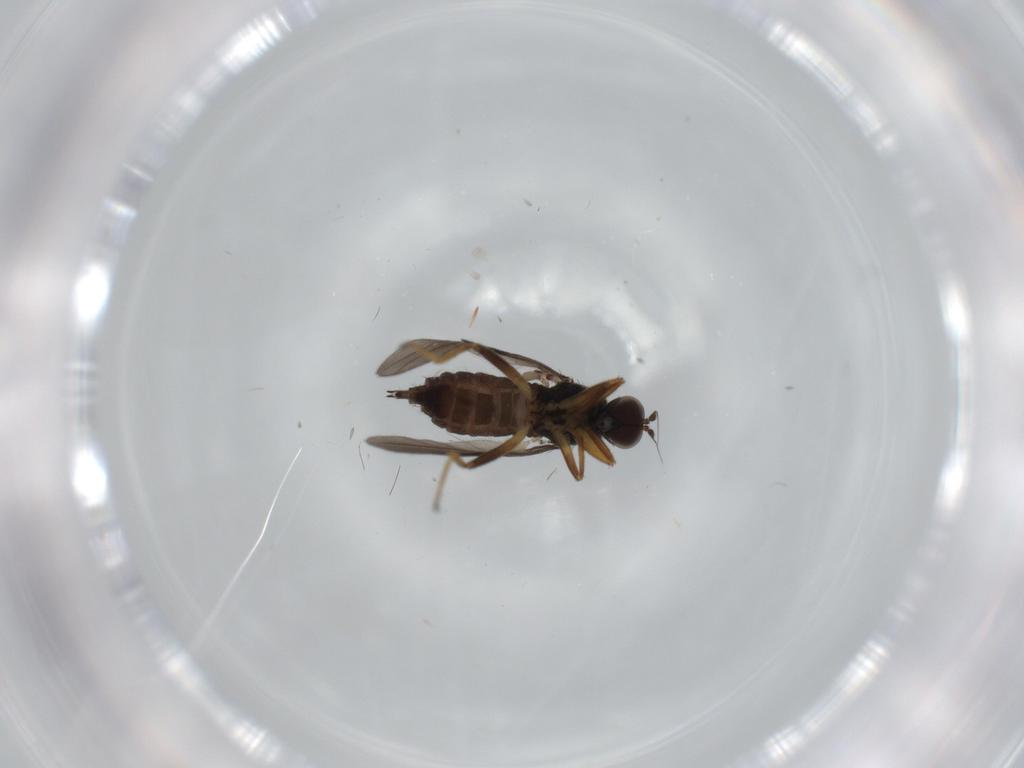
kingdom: Animalia
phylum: Arthropoda
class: Insecta
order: Diptera
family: Hybotidae
